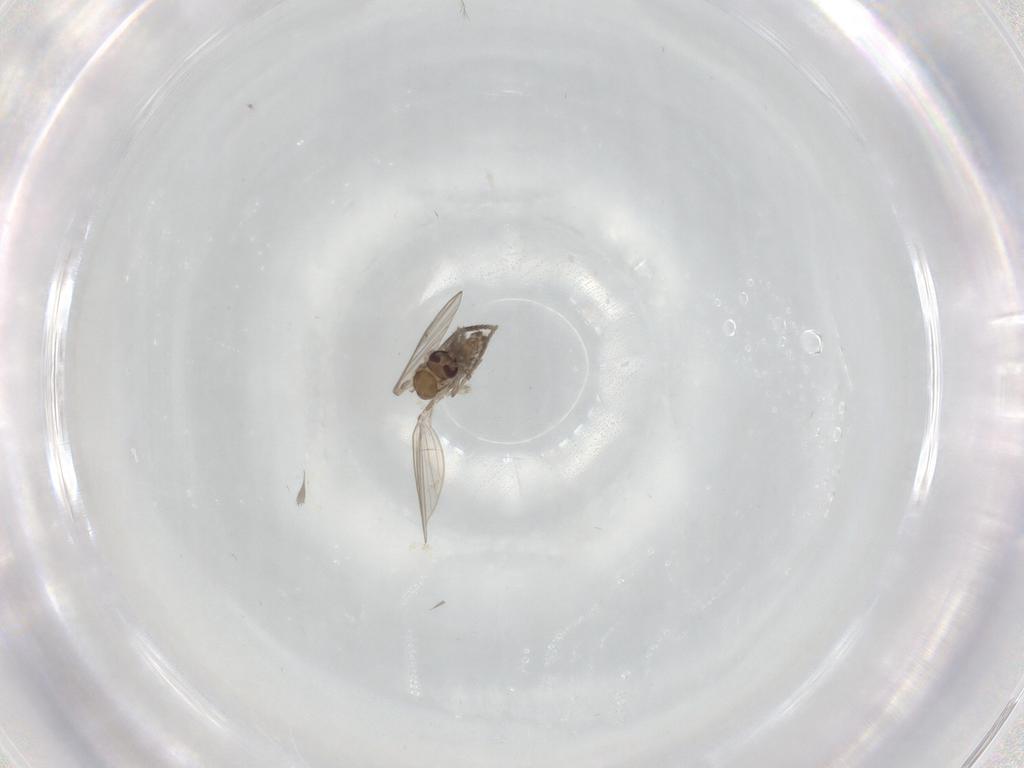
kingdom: Animalia
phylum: Arthropoda
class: Insecta
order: Diptera
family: Psychodidae
